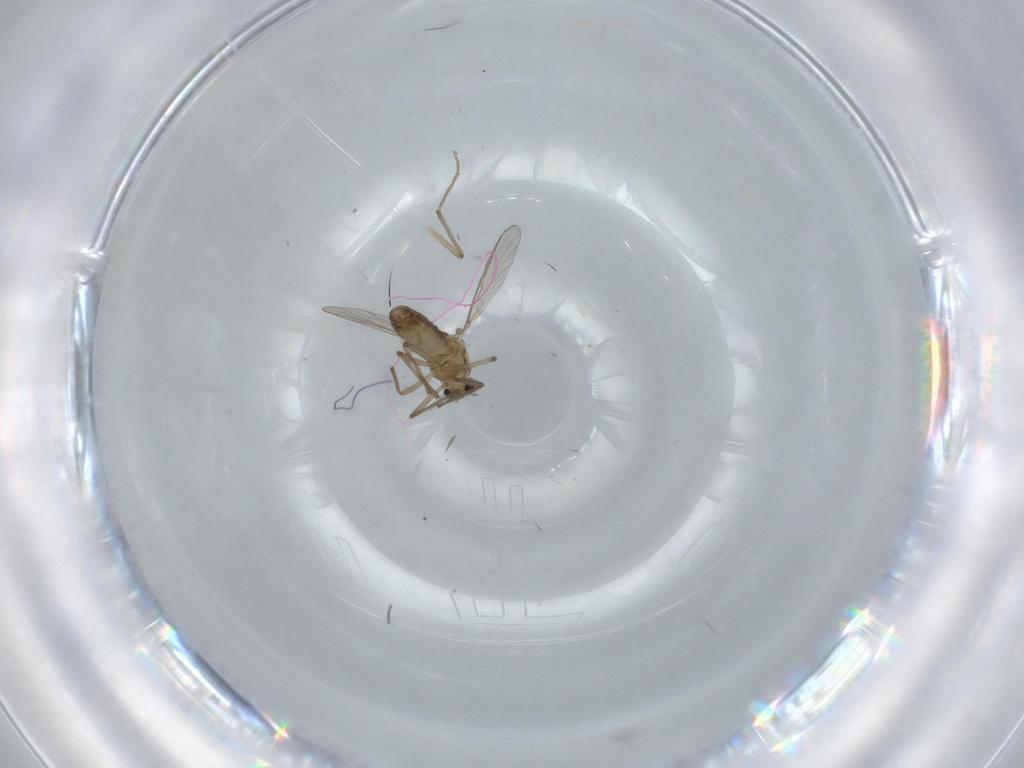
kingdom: Animalia
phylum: Arthropoda
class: Insecta
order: Diptera
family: Chironomidae
